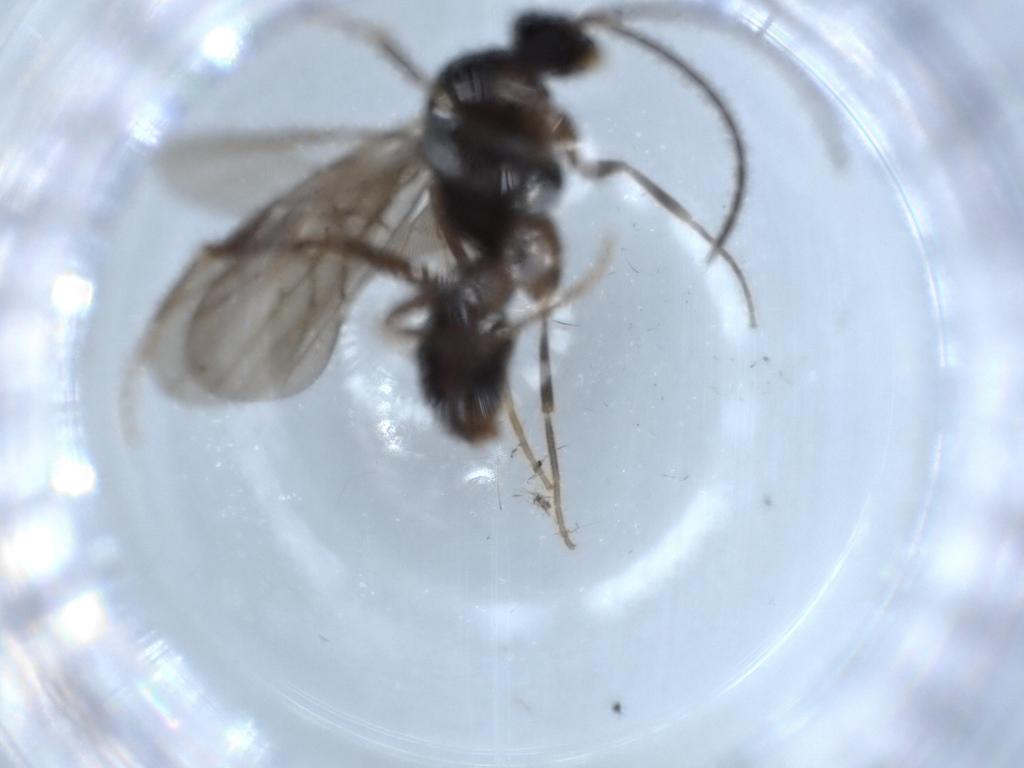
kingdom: Animalia
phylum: Arthropoda
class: Insecta
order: Hymenoptera
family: Formicidae
